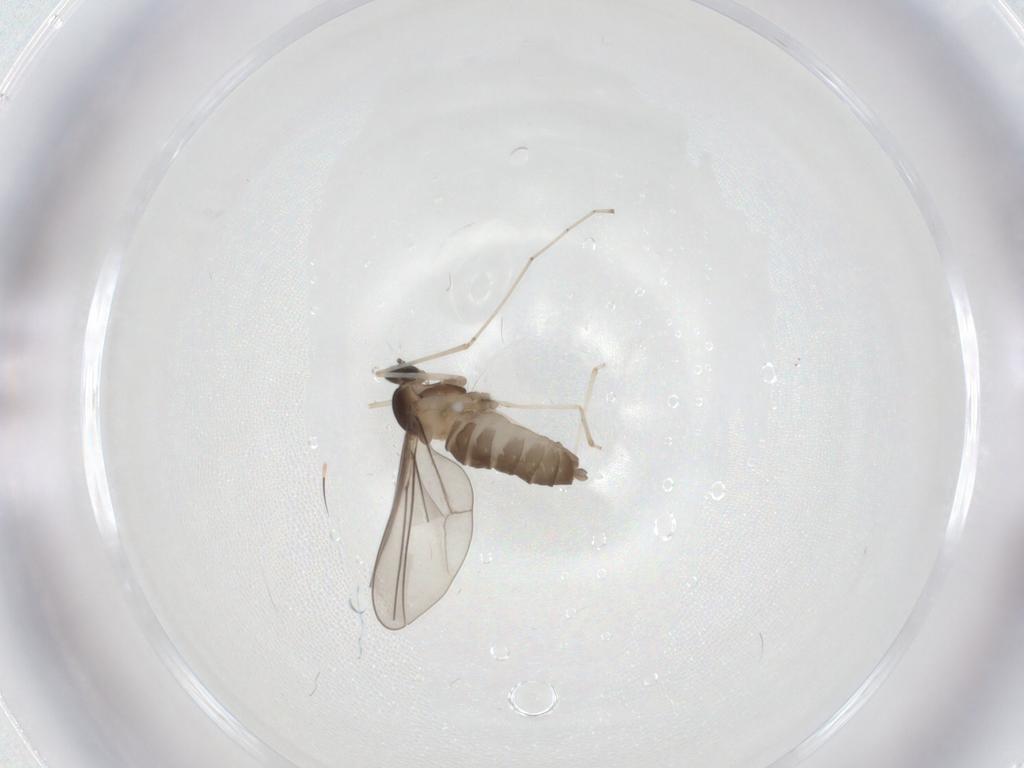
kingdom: Animalia
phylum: Arthropoda
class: Insecta
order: Diptera
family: Cecidomyiidae
